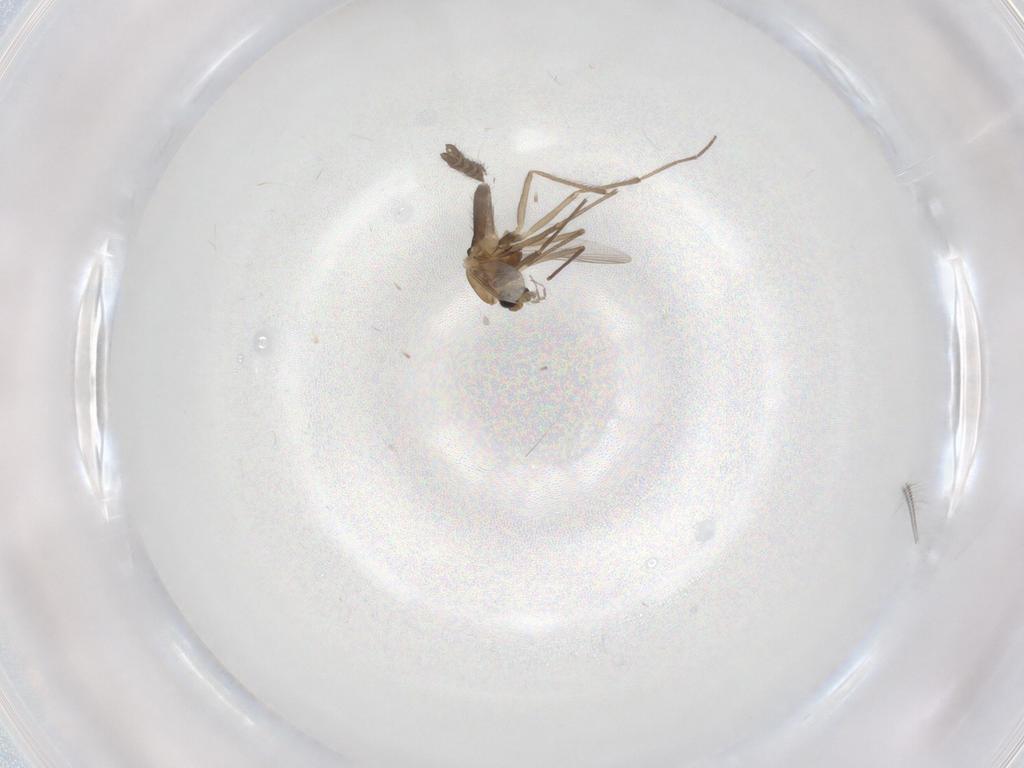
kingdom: Animalia
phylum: Arthropoda
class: Insecta
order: Diptera
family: Chironomidae
